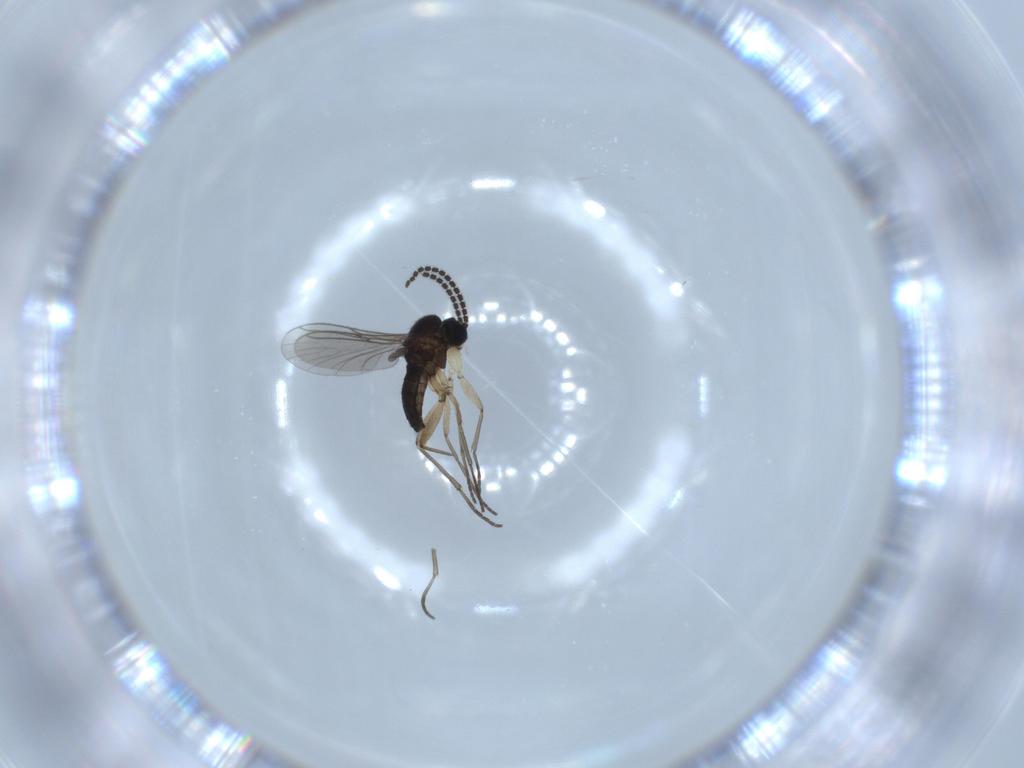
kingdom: Animalia
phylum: Arthropoda
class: Insecta
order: Diptera
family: Sciaridae
